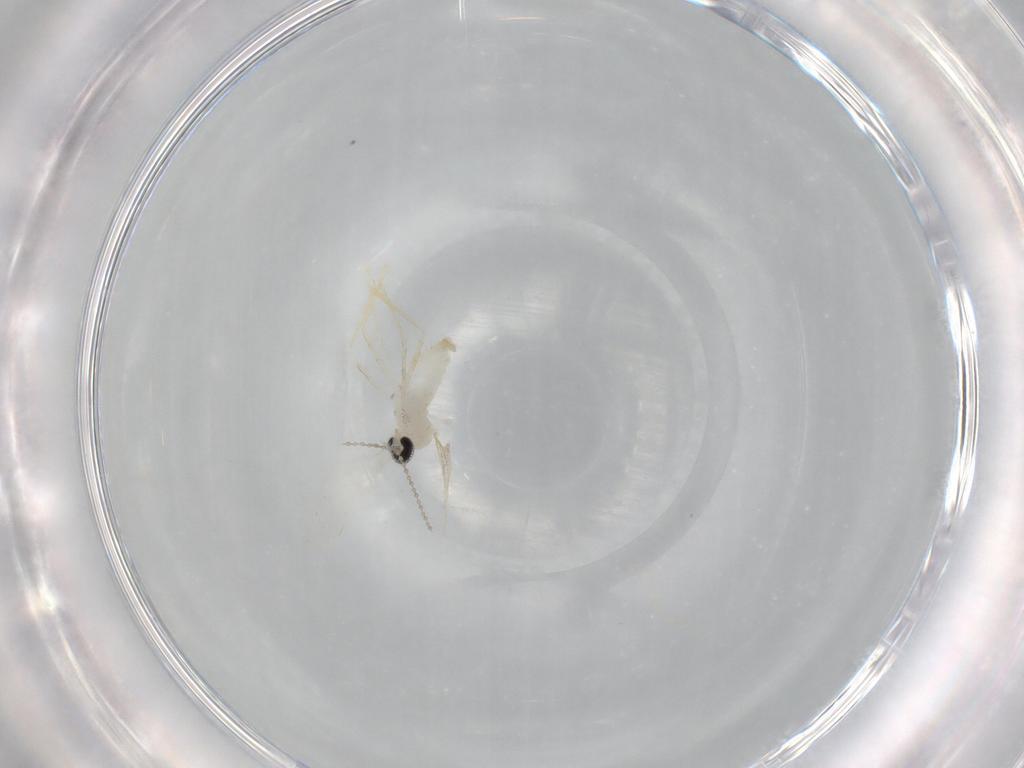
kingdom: Animalia
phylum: Arthropoda
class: Insecta
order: Diptera
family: Cecidomyiidae
